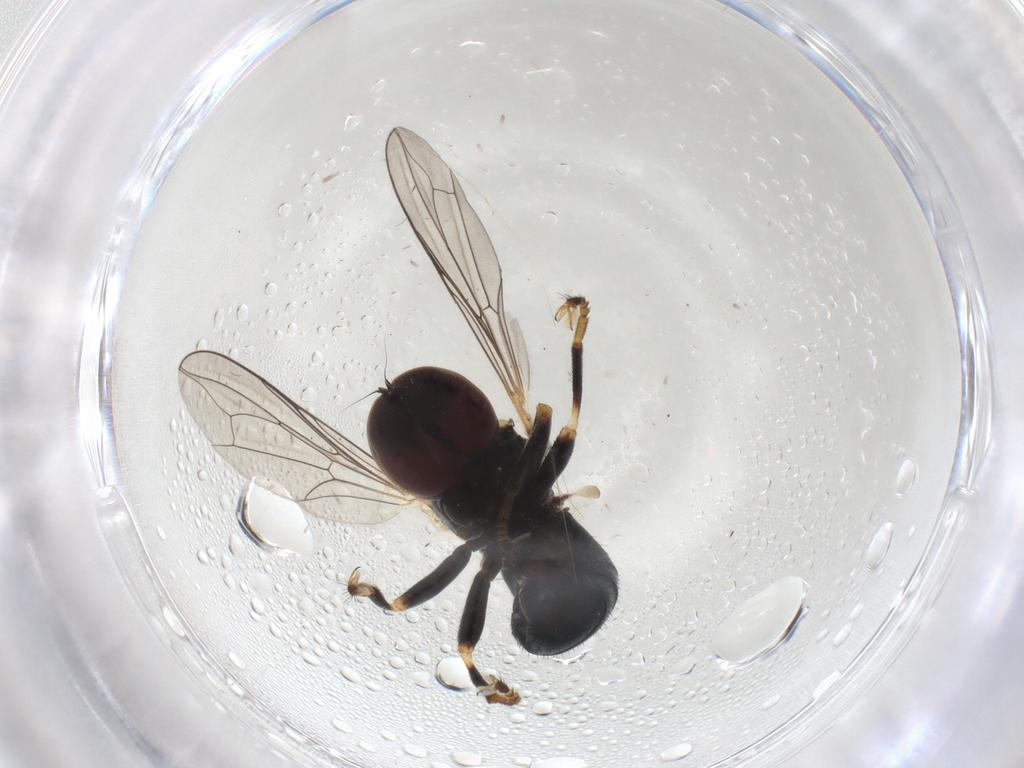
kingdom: Animalia
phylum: Arthropoda
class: Insecta
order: Diptera
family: Pipunculidae
